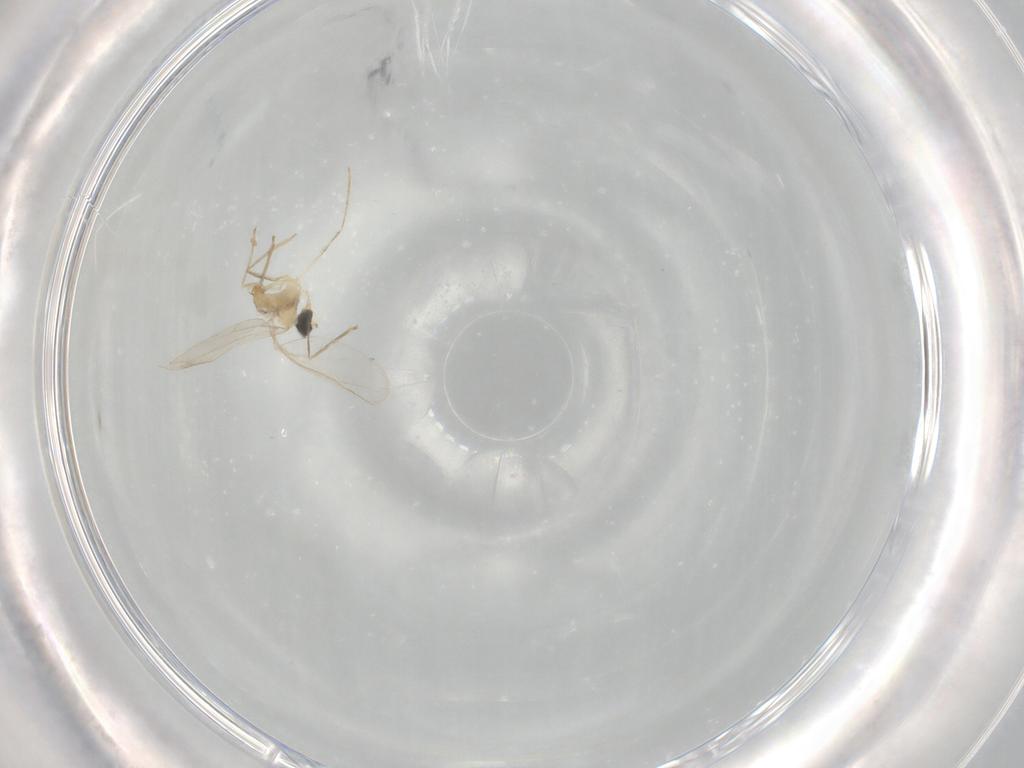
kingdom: Animalia
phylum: Arthropoda
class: Insecta
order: Diptera
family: Cecidomyiidae
